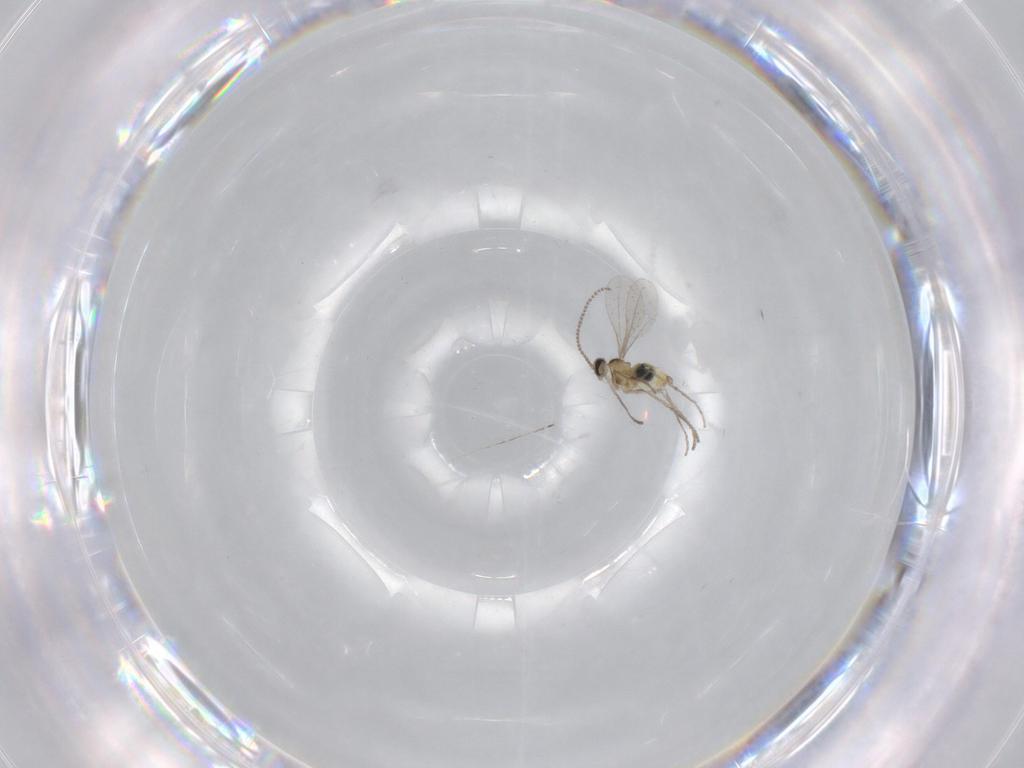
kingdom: Animalia
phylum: Arthropoda
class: Insecta
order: Diptera
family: Cecidomyiidae
